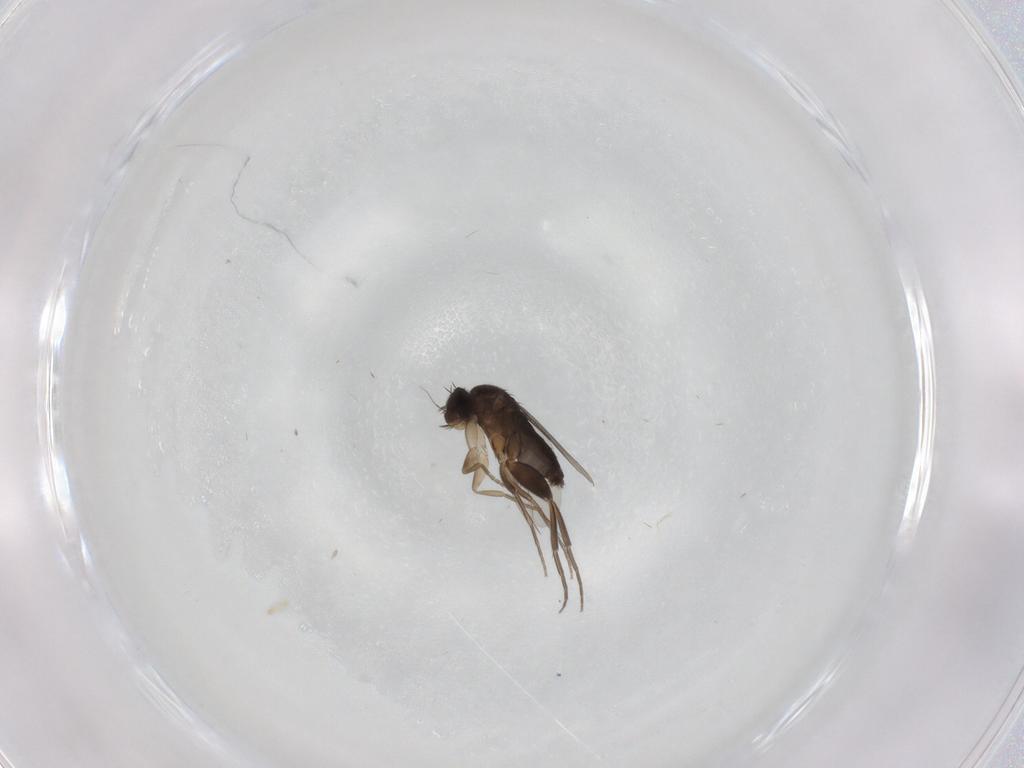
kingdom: Animalia
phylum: Arthropoda
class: Insecta
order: Diptera
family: Phoridae
